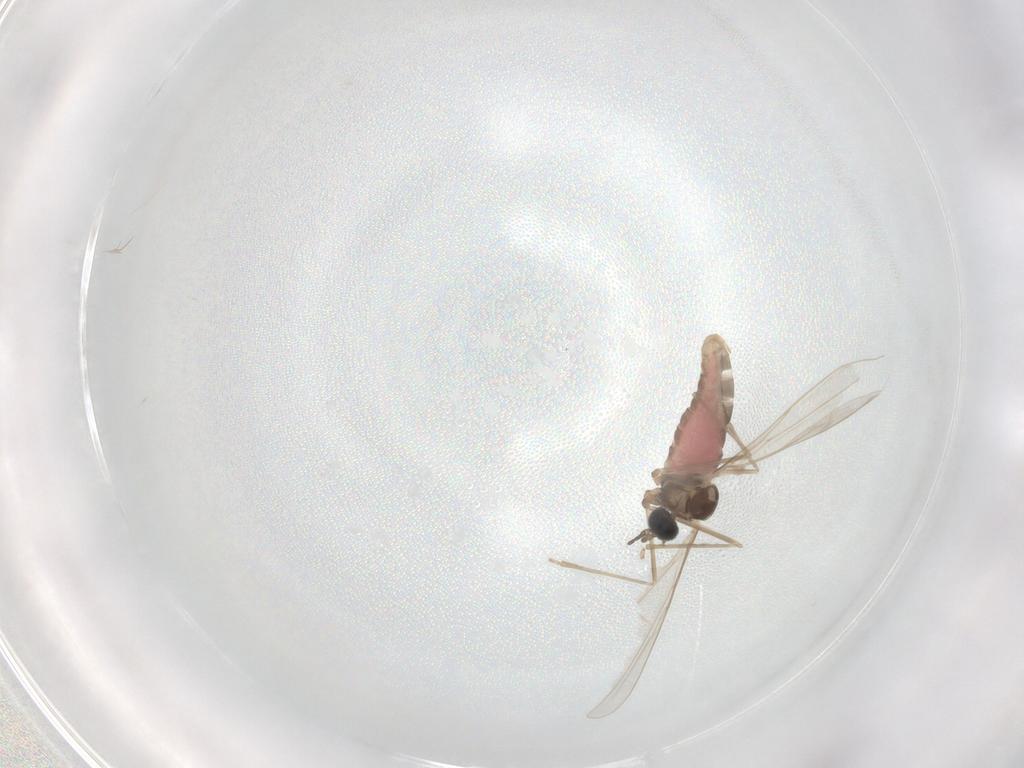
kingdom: Animalia
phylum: Arthropoda
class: Insecta
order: Diptera
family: Cecidomyiidae
